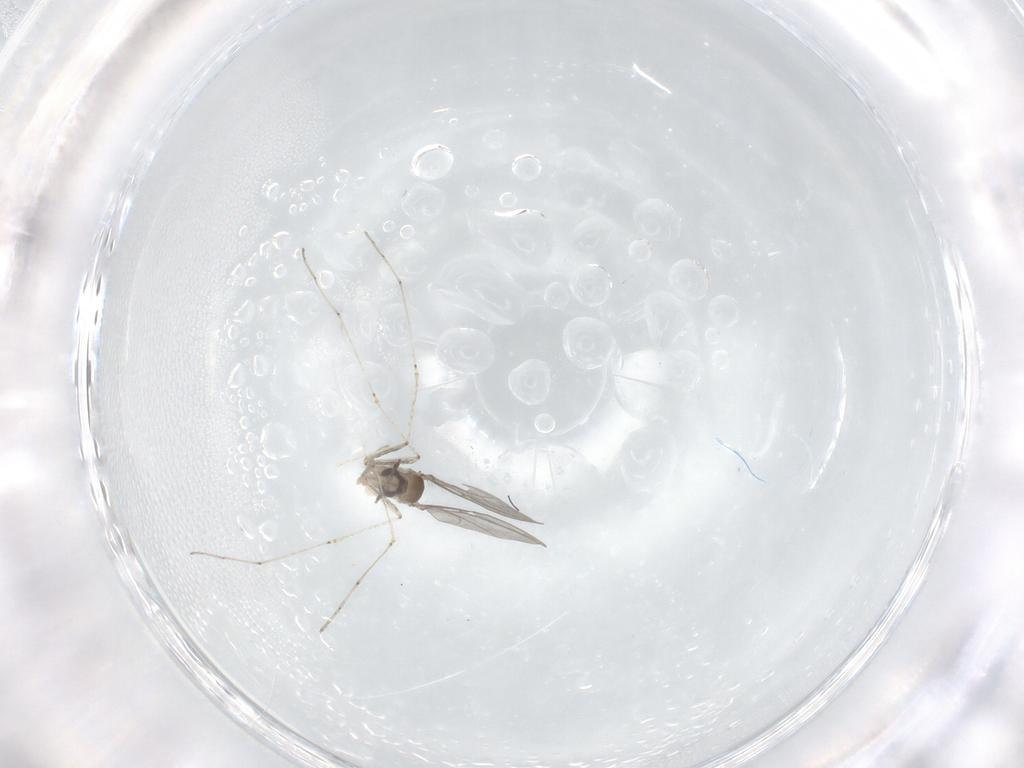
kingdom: Animalia
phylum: Arthropoda
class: Insecta
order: Diptera
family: Cecidomyiidae
